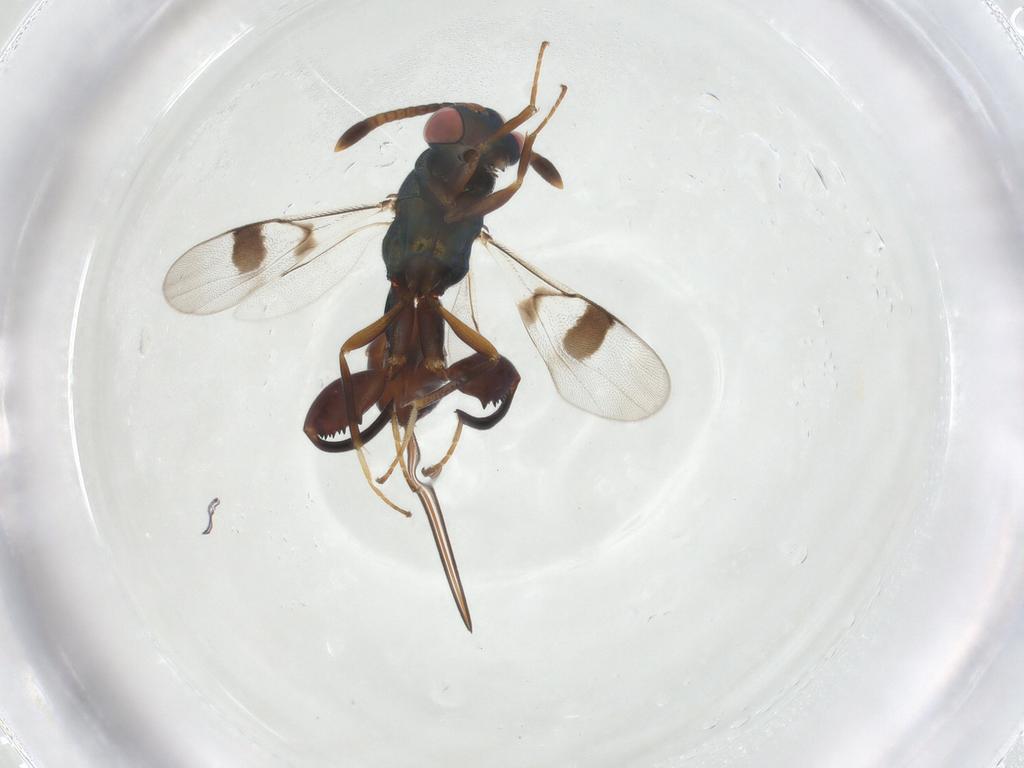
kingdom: Animalia
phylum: Arthropoda
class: Insecta
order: Hymenoptera
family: Torymidae
